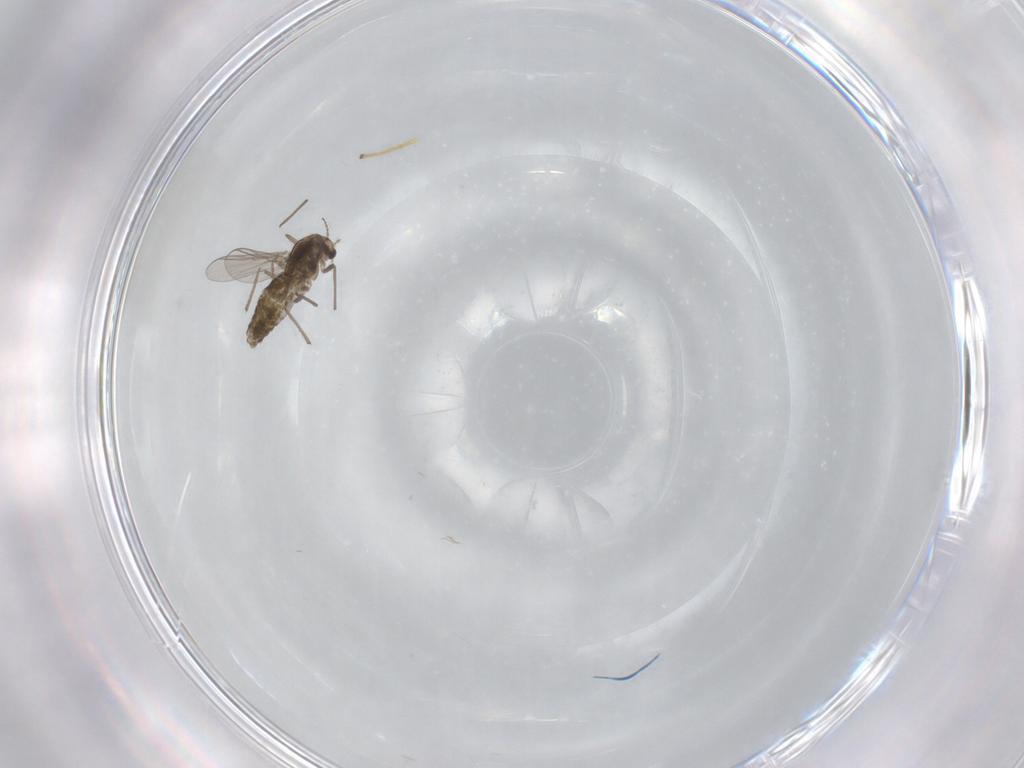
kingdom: Animalia
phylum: Arthropoda
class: Insecta
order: Diptera
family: Chironomidae
